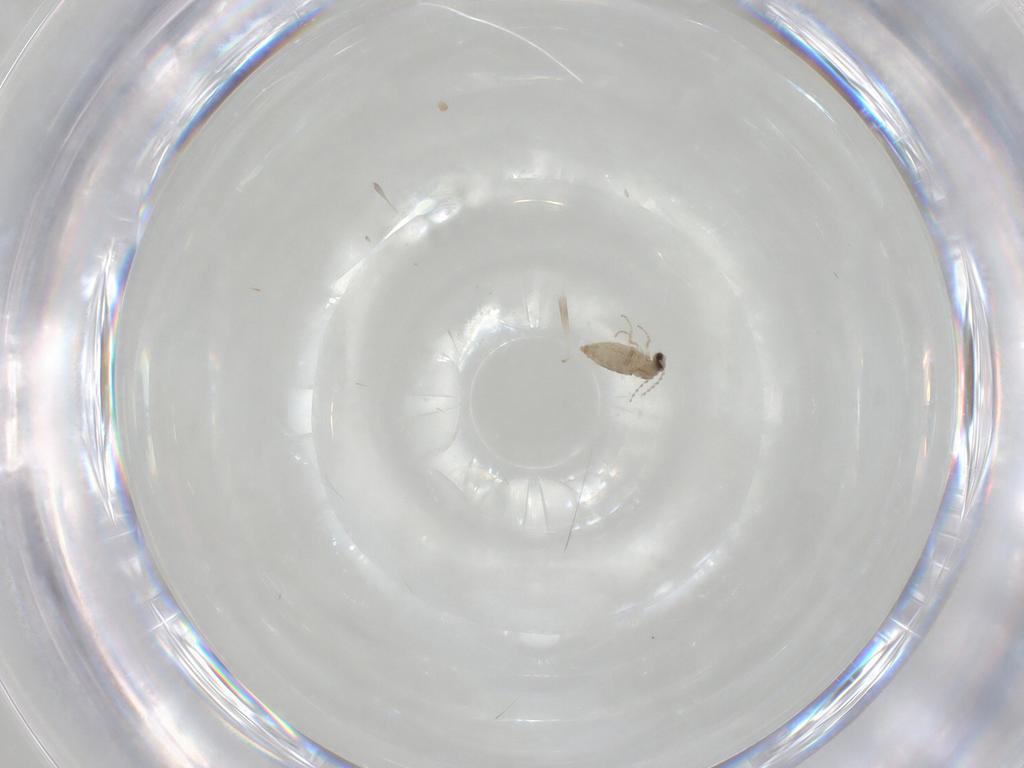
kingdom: Animalia
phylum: Arthropoda
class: Insecta
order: Diptera
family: Cecidomyiidae
